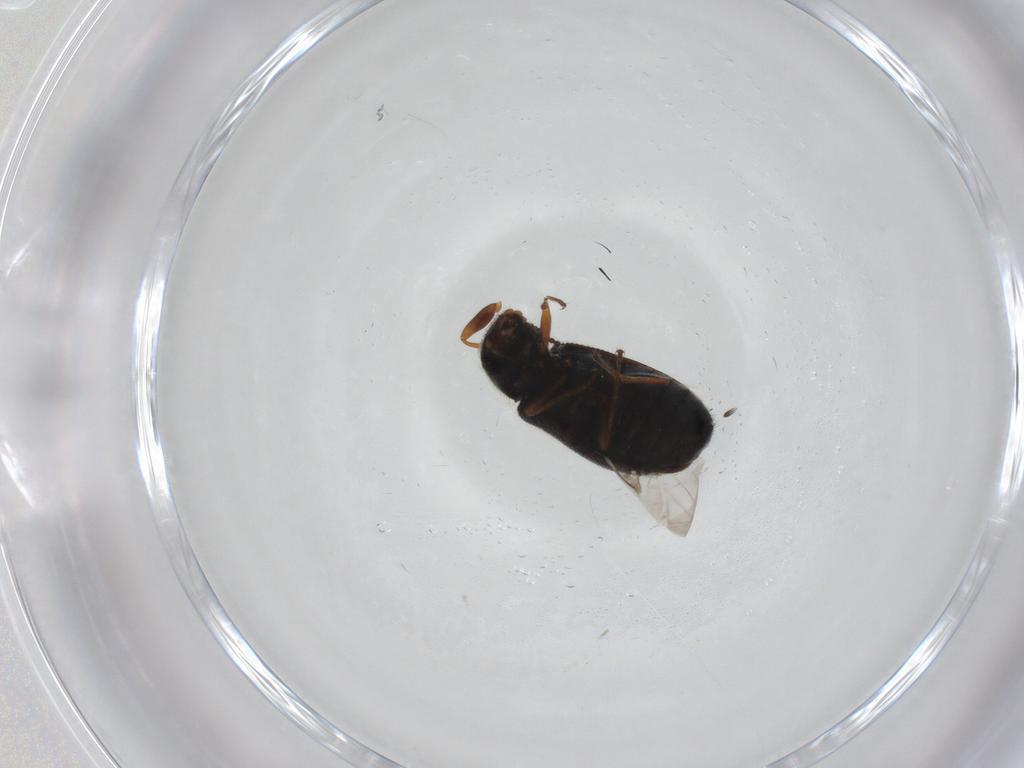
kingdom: Animalia
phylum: Arthropoda
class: Insecta
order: Coleoptera
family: Melyridae
